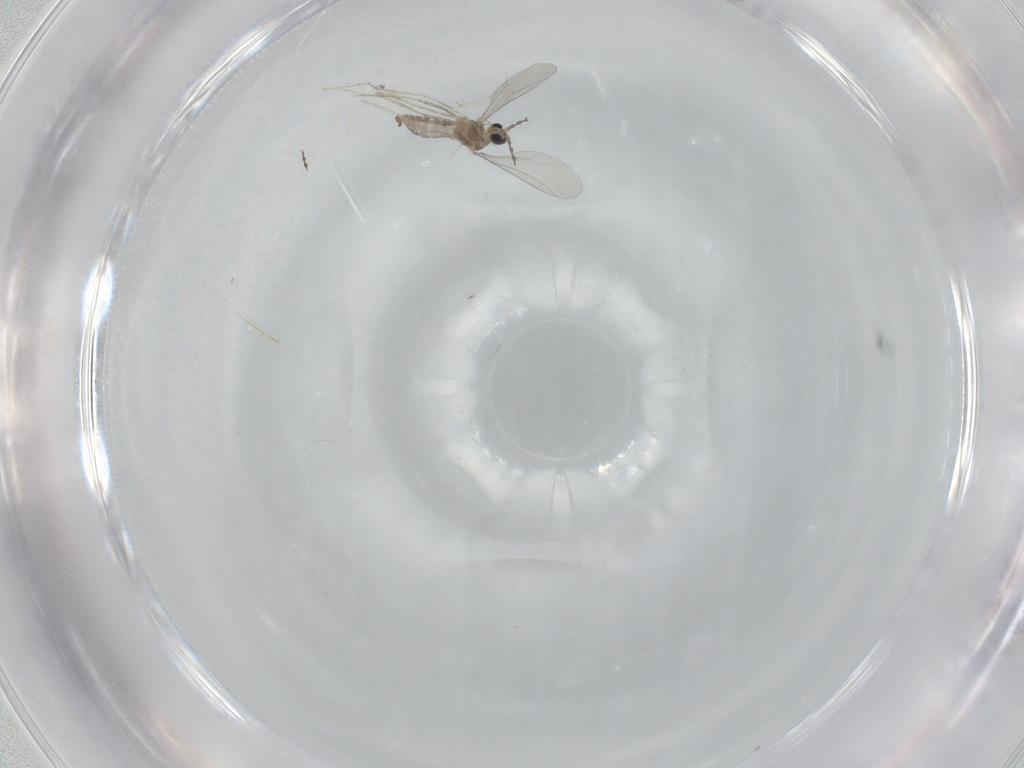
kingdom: Animalia
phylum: Arthropoda
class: Insecta
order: Diptera
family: Cecidomyiidae
